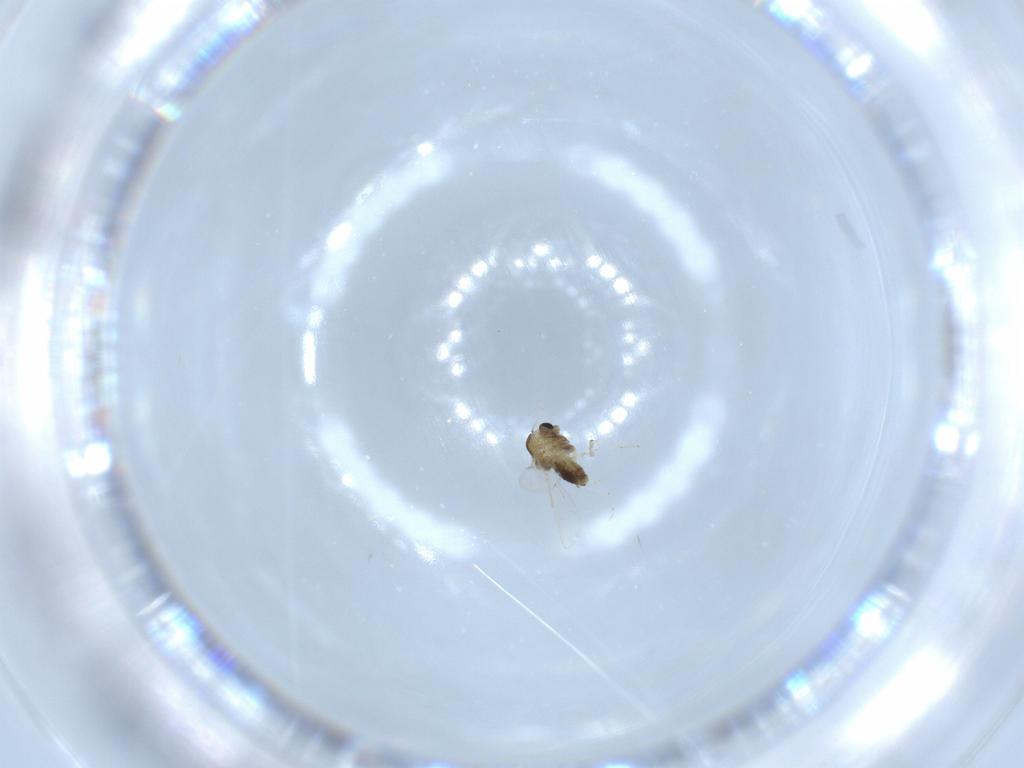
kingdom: Animalia
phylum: Arthropoda
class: Insecta
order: Diptera
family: Chironomidae
